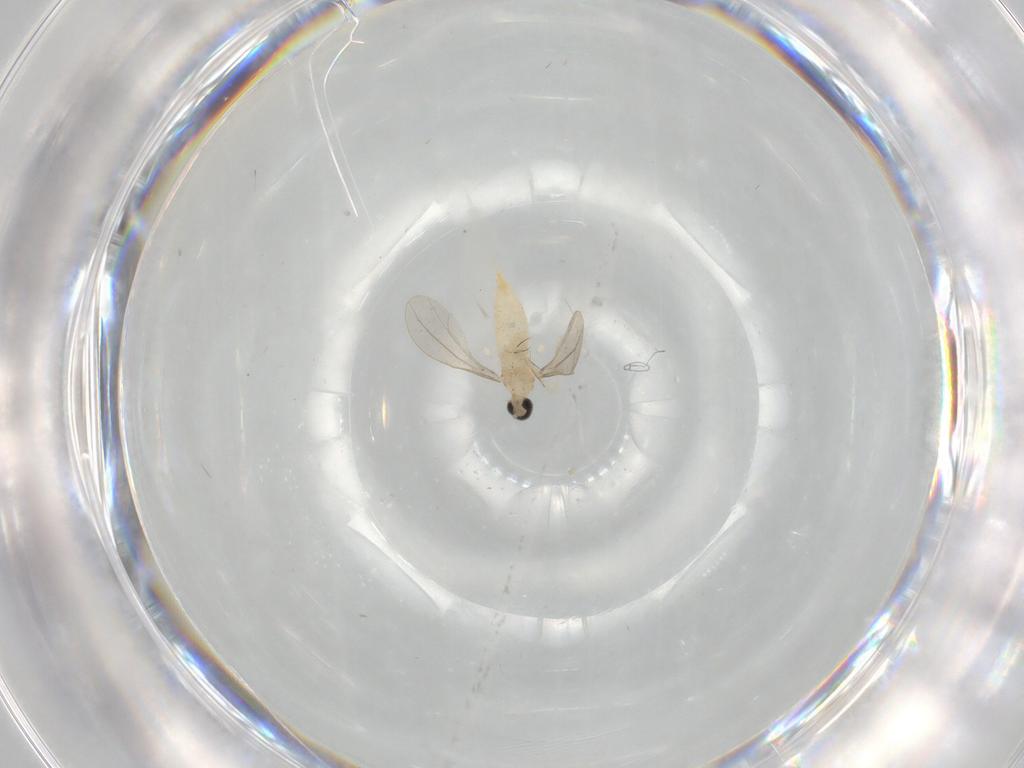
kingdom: Animalia
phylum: Arthropoda
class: Insecta
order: Diptera
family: Cecidomyiidae
